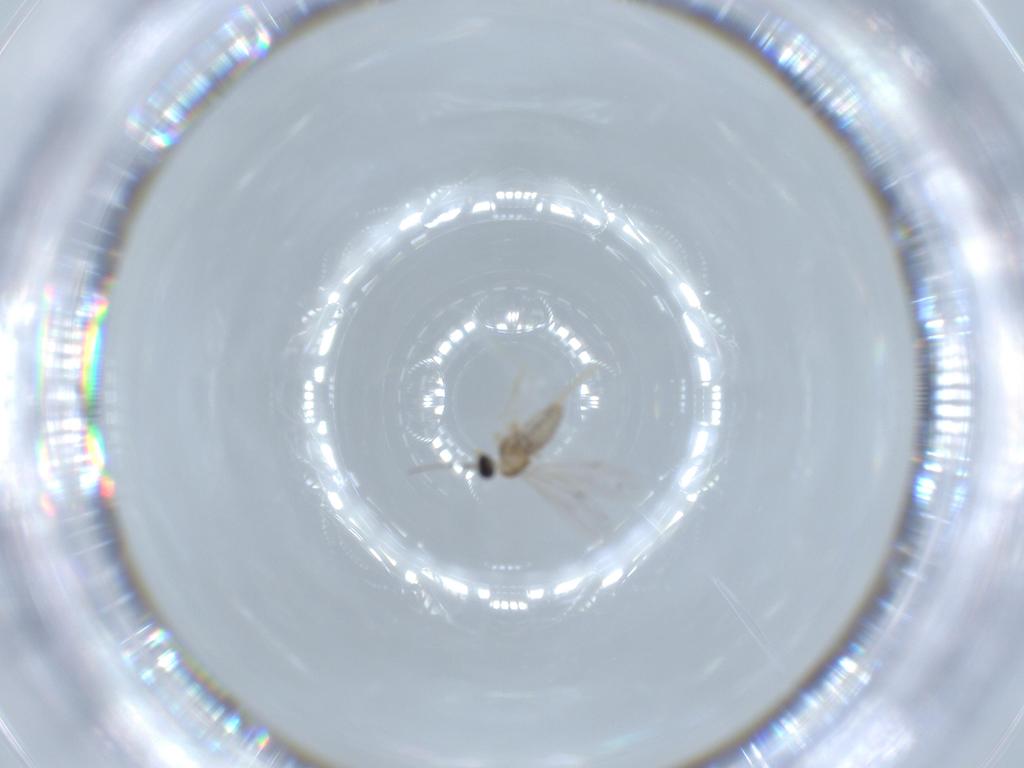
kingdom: Animalia
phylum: Arthropoda
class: Insecta
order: Diptera
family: Cecidomyiidae
